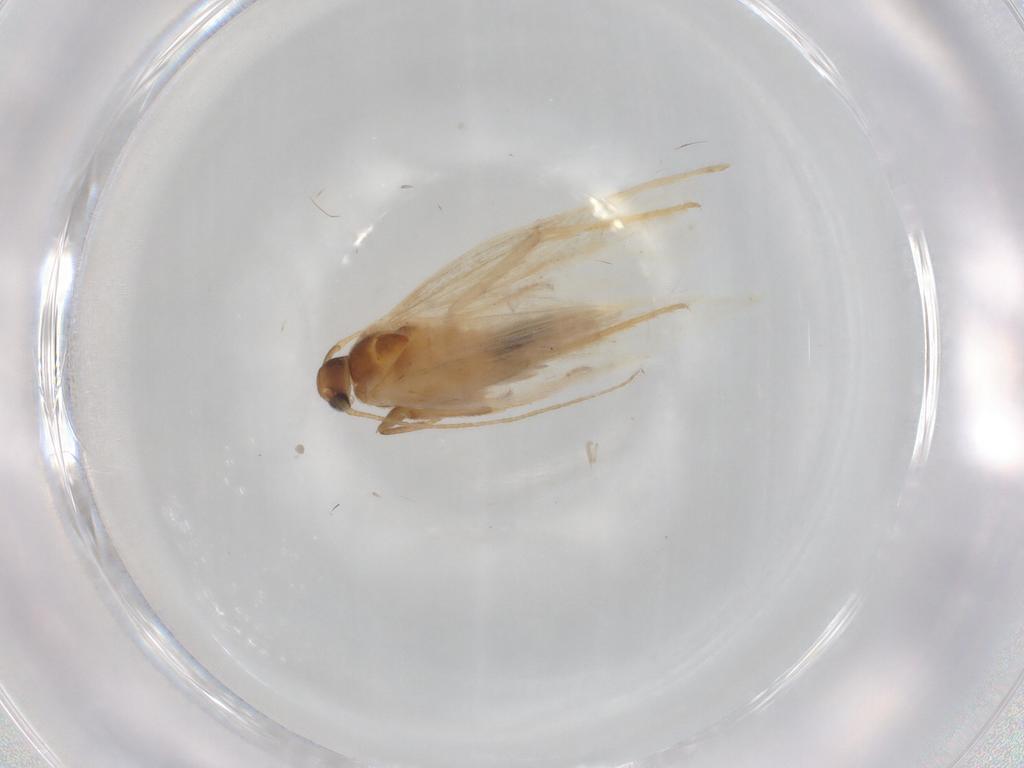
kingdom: Animalia
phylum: Arthropoda
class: Insecta
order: Lepidoptera
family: Gelechiidae
